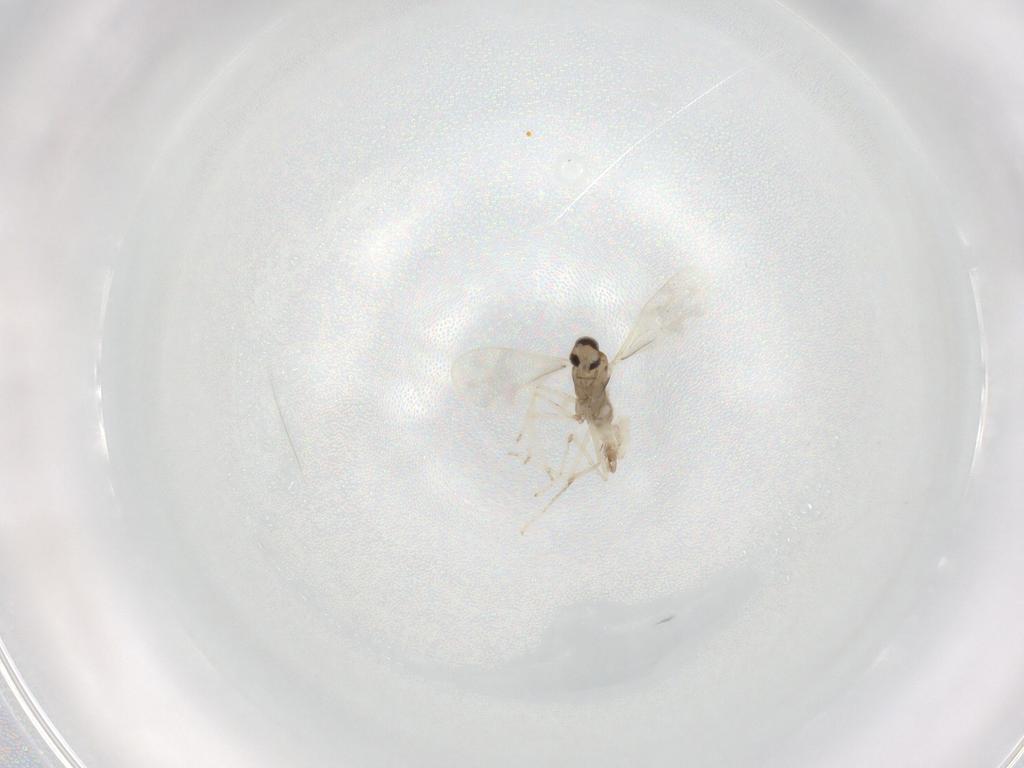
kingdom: Animalia
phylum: Arthropoda
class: Insecta
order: Diptera
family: Cecidomyiidae
